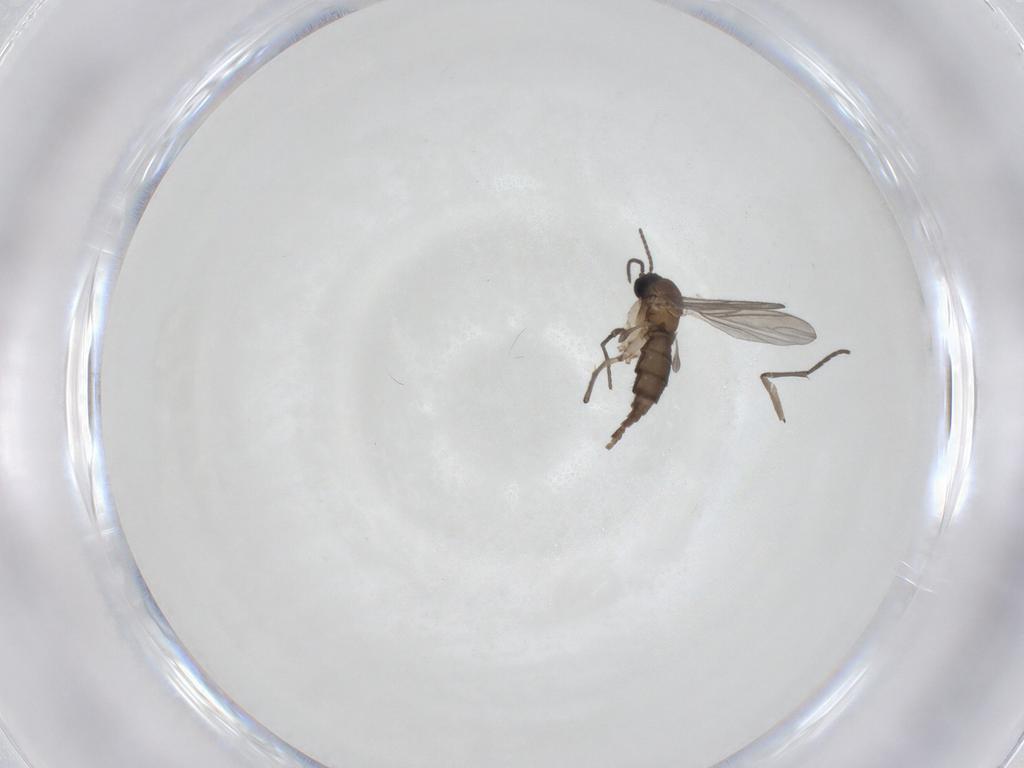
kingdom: Animalia
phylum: Arthropoda
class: Insecta
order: Diptera
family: Sciaridae
